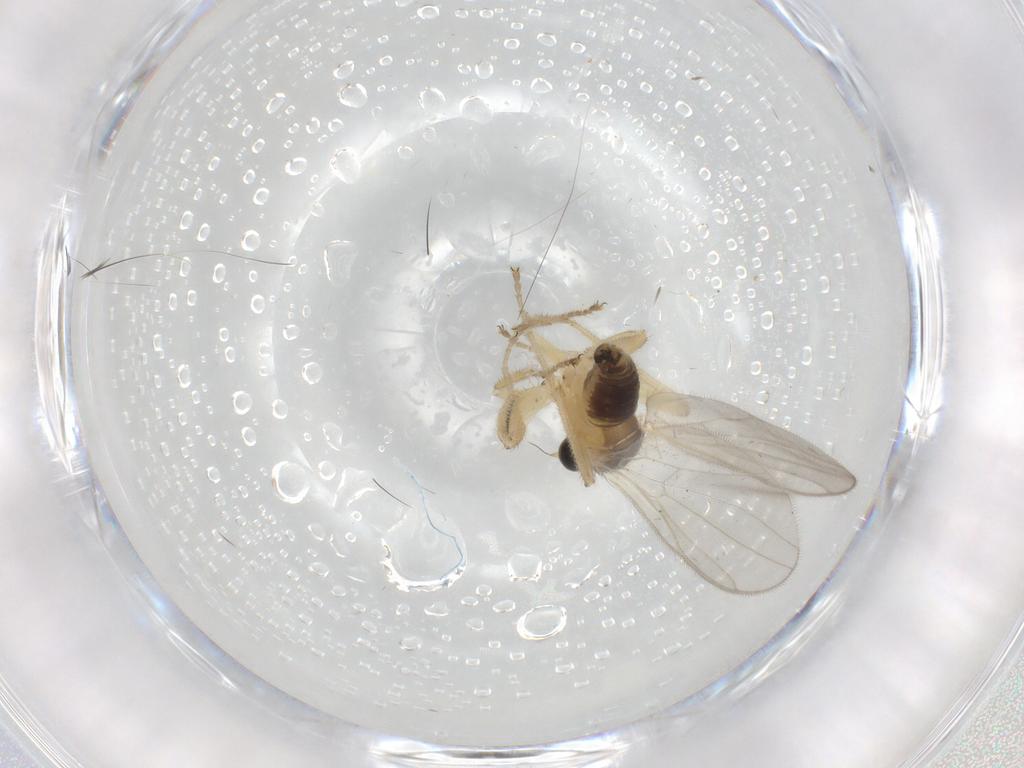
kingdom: Animalia
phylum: Arthropoda
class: Insecta
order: Diptera
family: Hybotidae
